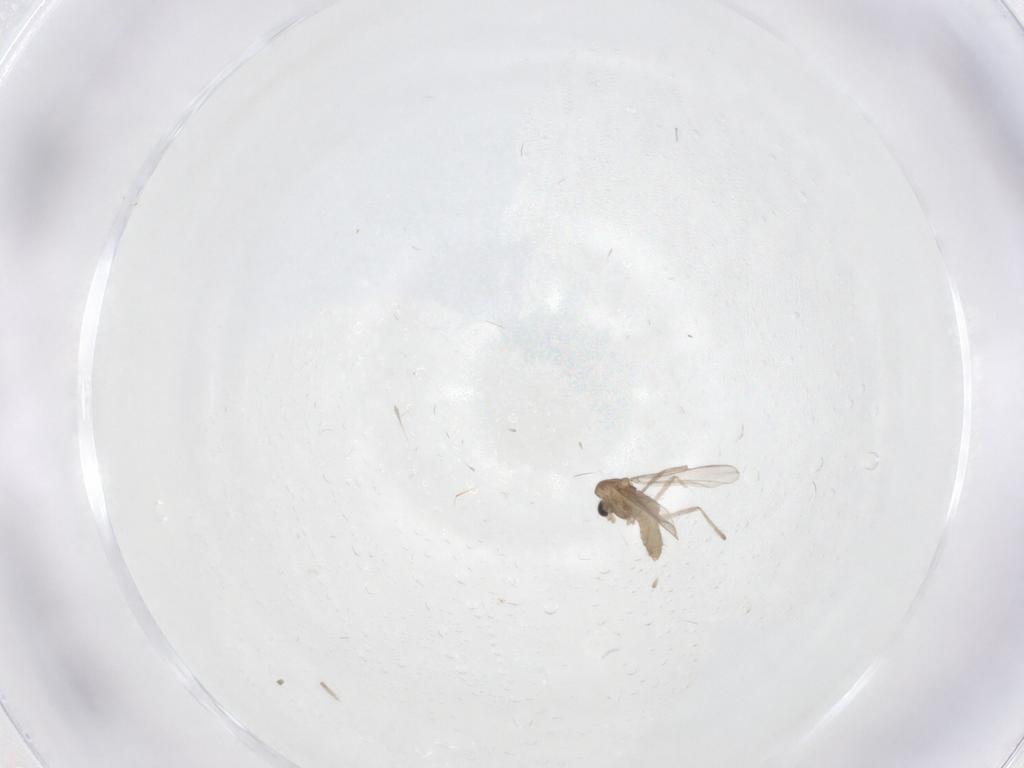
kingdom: Animalia
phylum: Arthropoda
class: Insecta
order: Diptera
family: Chironomidae
